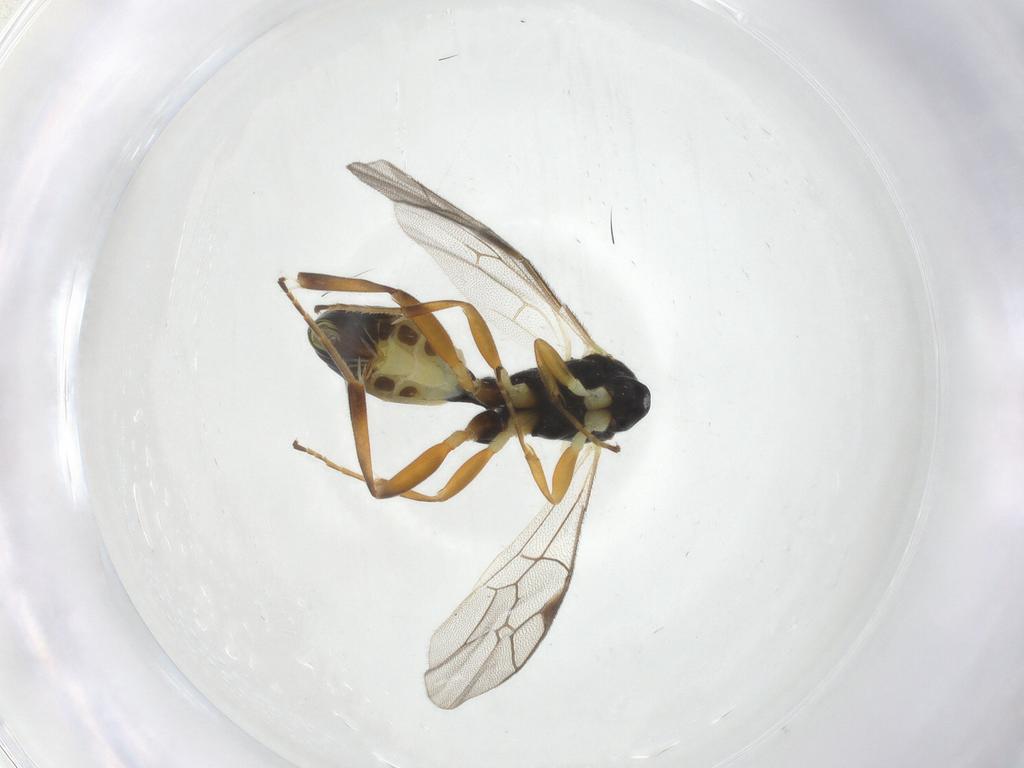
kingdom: Animalia
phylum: Arthropoda
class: Insecta
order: Hymenoptera
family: Ichneumonidae
